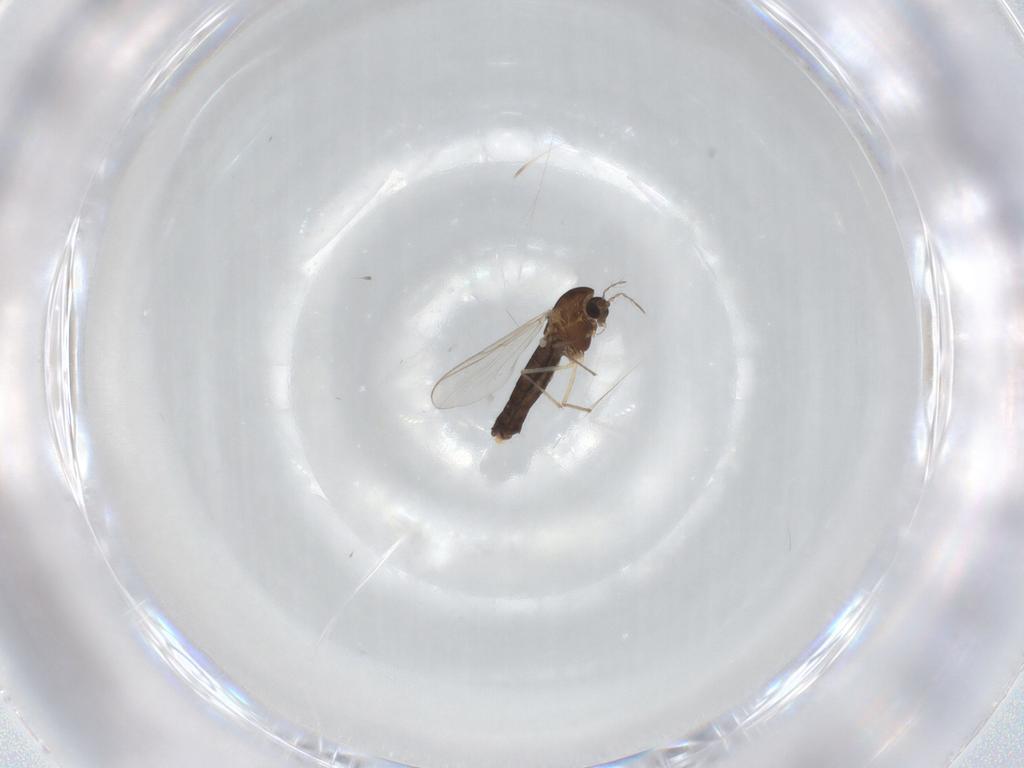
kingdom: Animalia
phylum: Arthropoda
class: Insecta
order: Diptera
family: Chironomidae
